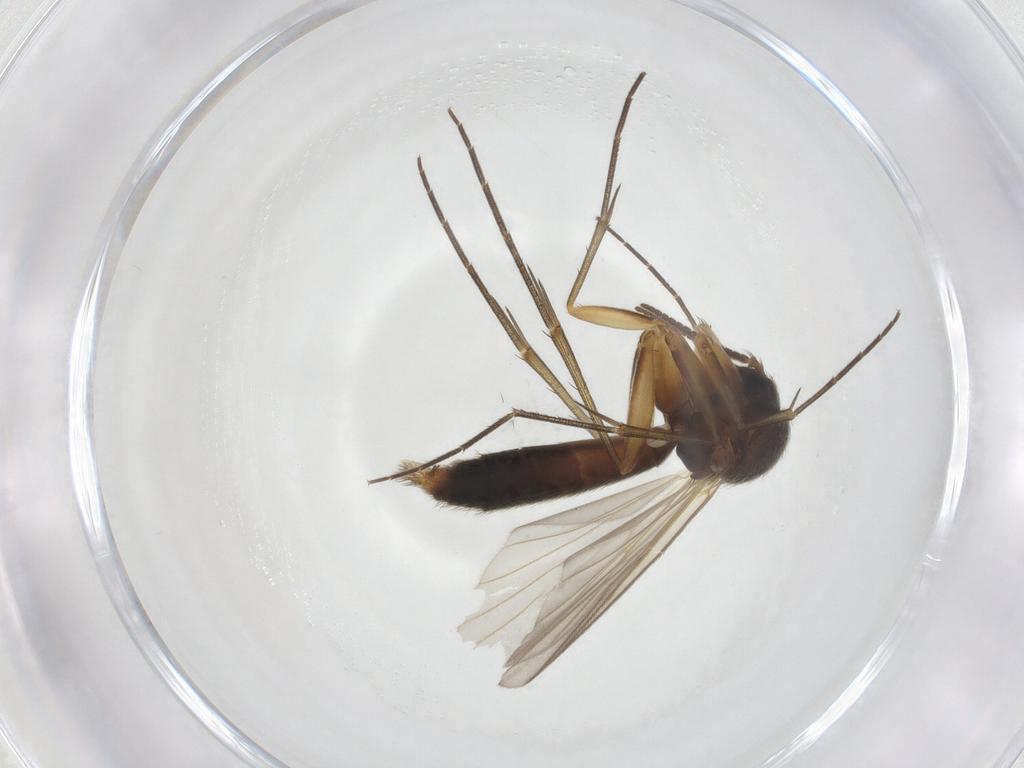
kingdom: Animalia
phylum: Arthropoda
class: Insecta
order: Diptera
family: Mycetophilidae
